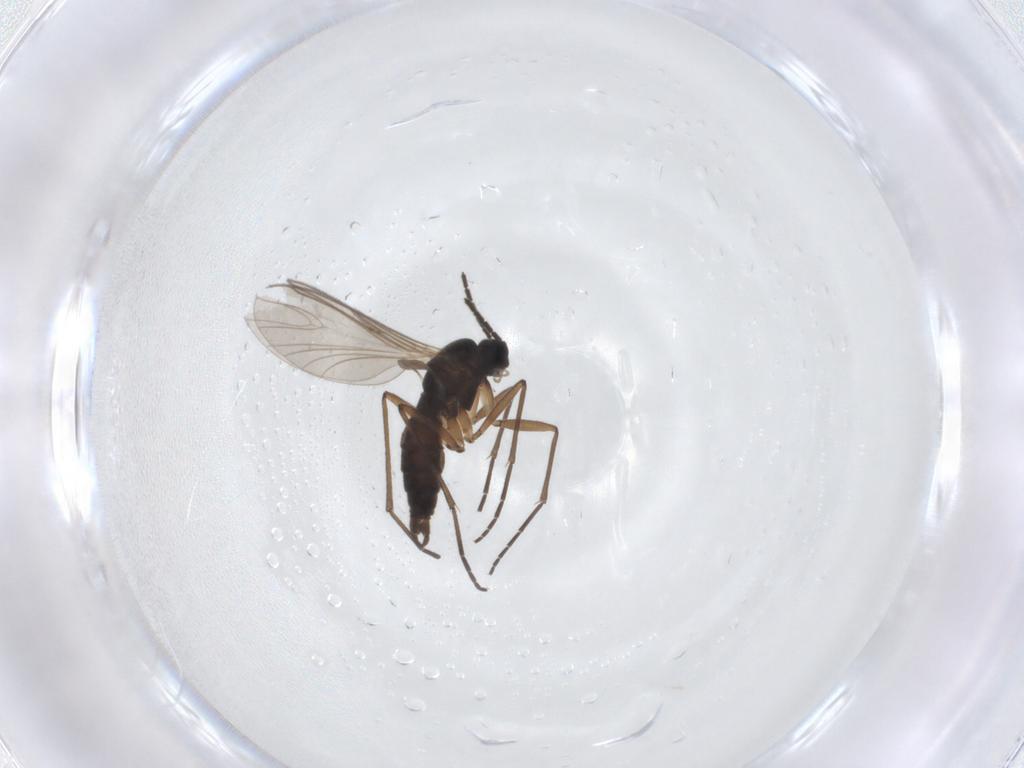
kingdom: Animalia
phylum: Arthropoda
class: Insecta
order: Diptera
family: Sciaridae
